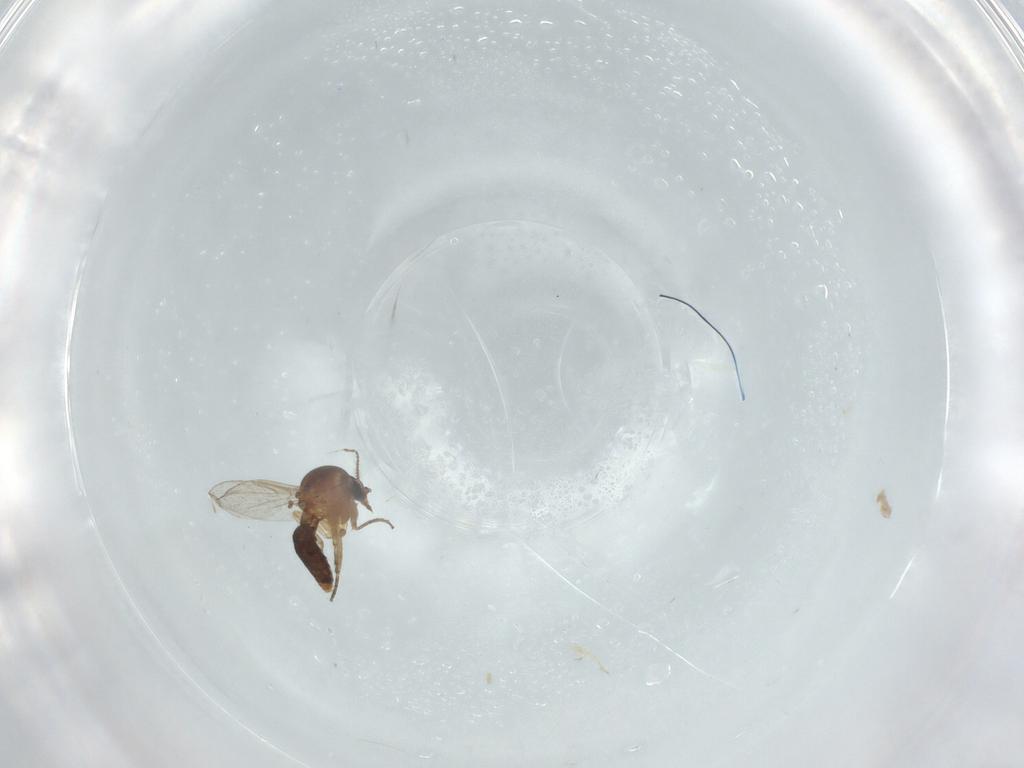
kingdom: Animalia
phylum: Arthropoda
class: Insecta
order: Diptera
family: Ceratopogonidae
